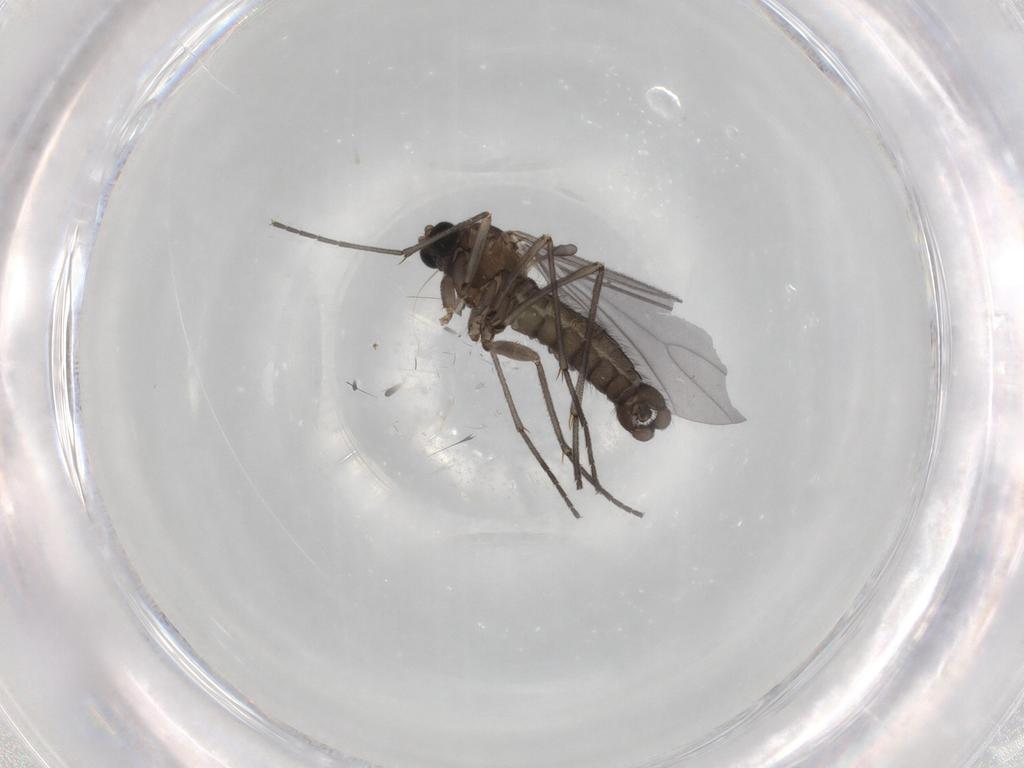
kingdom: Animalia
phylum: Arthropoda
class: Insecta
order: Diptera
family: Sciaridae
